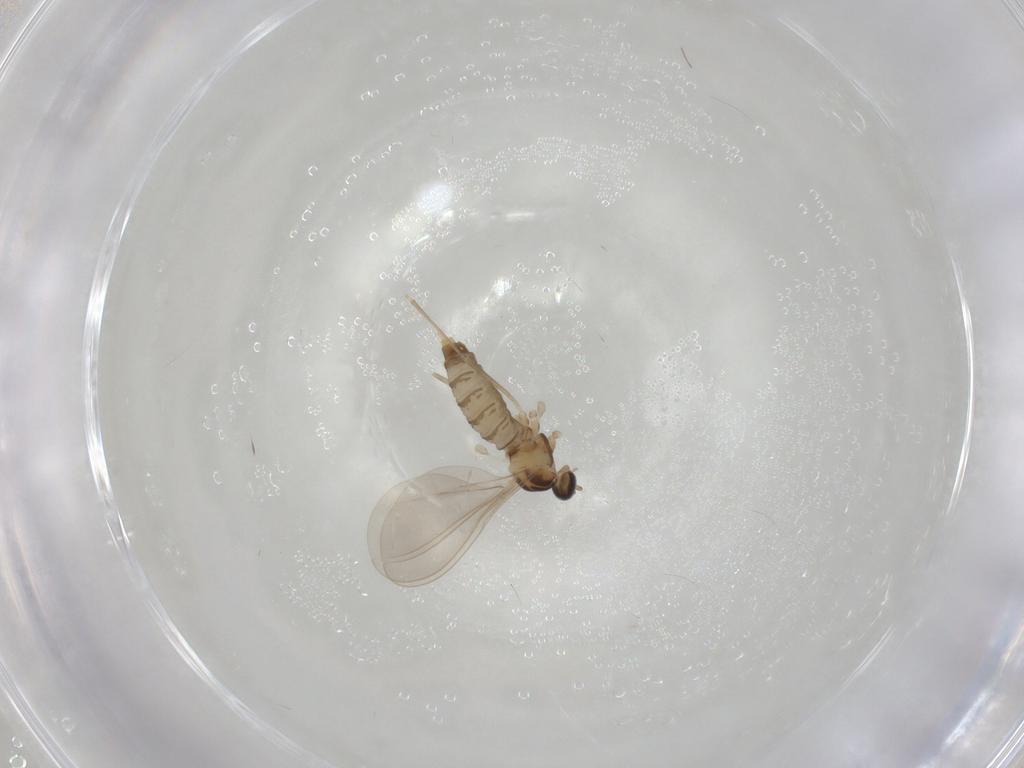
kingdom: Animalia
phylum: Arthropoda
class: Insecta
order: Diptera
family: Cecidomyiidae
